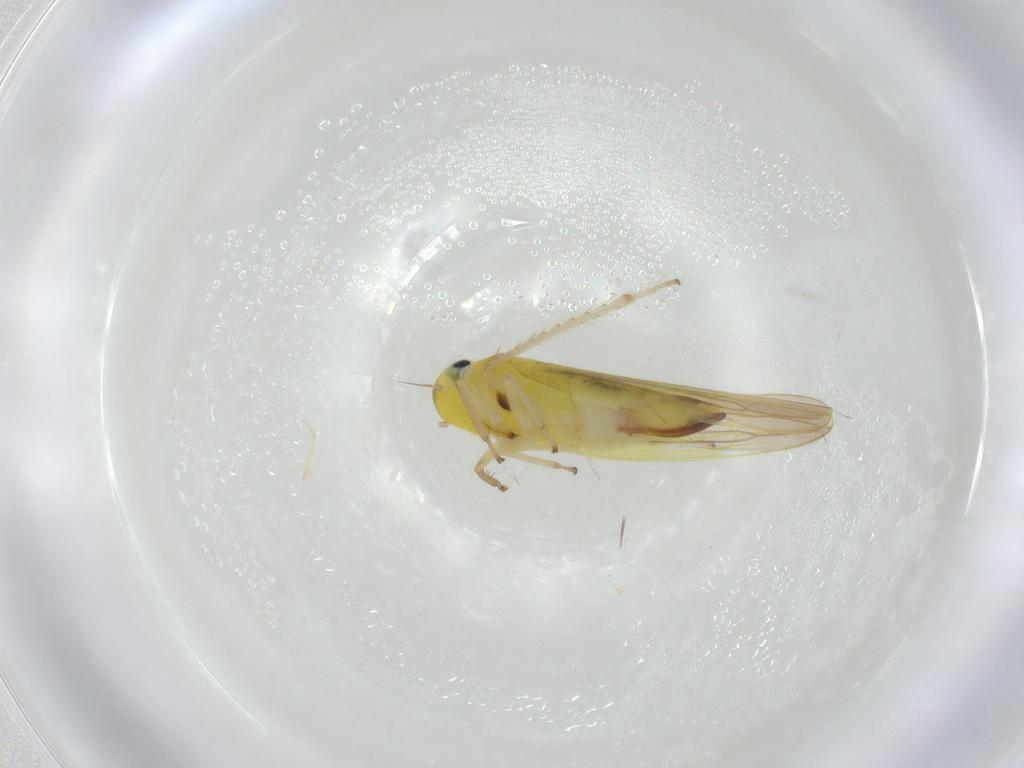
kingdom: Animalia
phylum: Arthropoda
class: Insecta
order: Hemiptera
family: Cicadellidae
